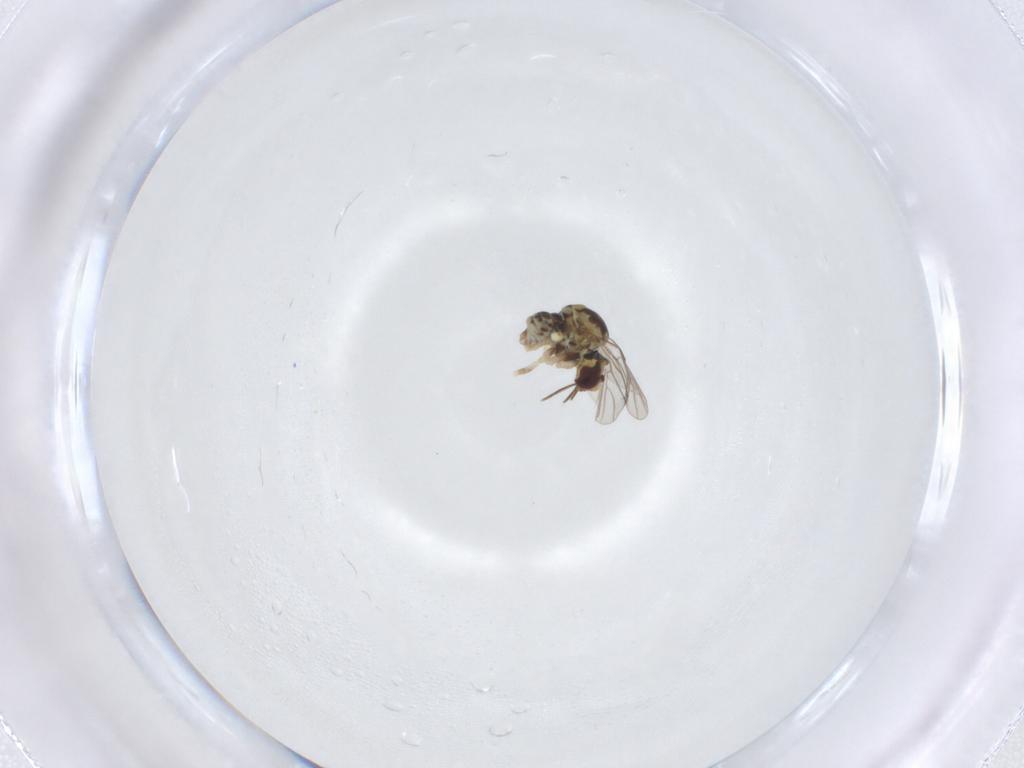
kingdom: Animalia
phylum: Arthropoda
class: Insecta
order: Diptera
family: Bombyliidae
